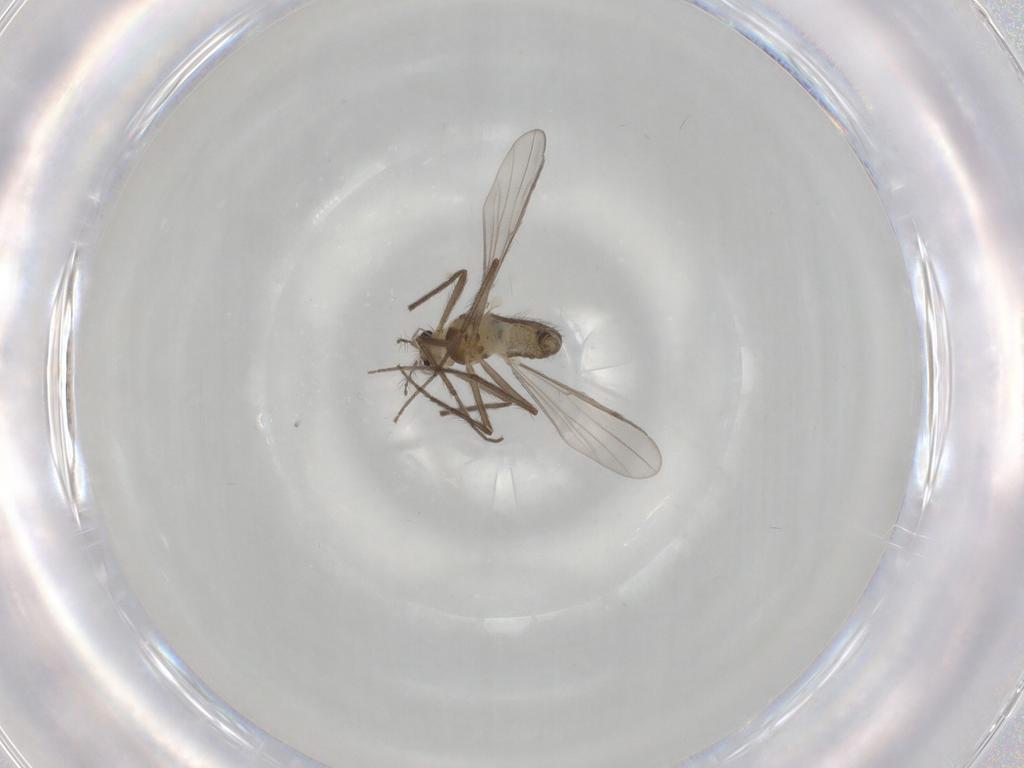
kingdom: Animalia
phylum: Arthropoda
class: Insecta
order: Diptera
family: Chironomidae
